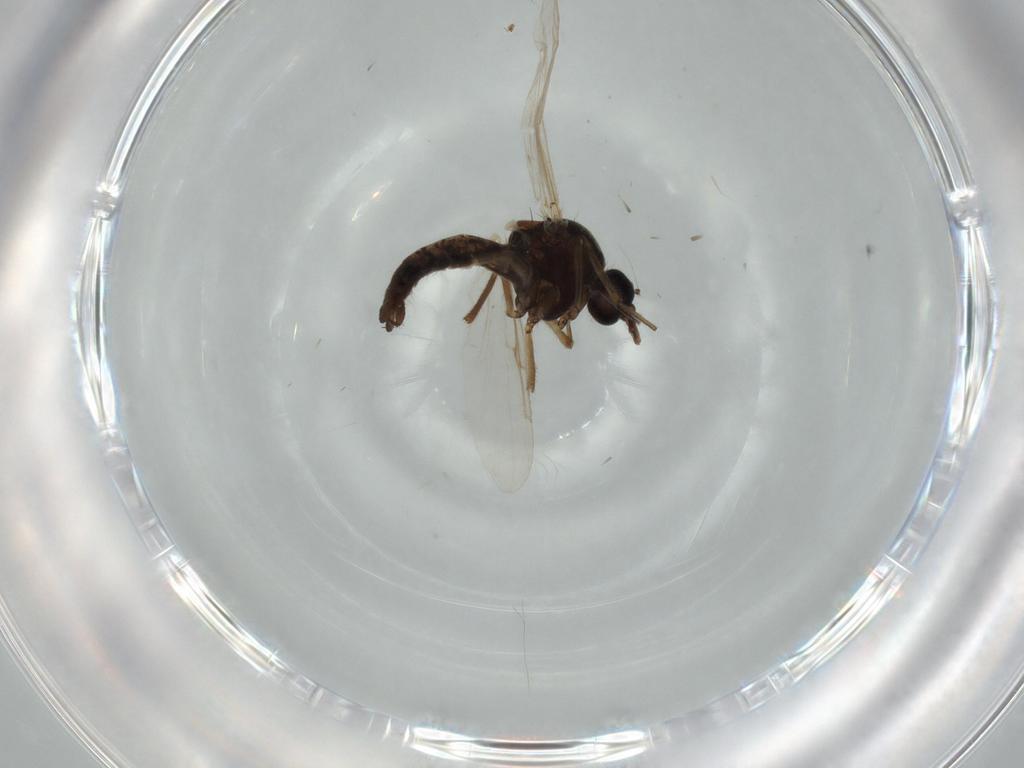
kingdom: Animalia
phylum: Arthropoda
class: Insecta
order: Diptera
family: Ceratopogonidae
